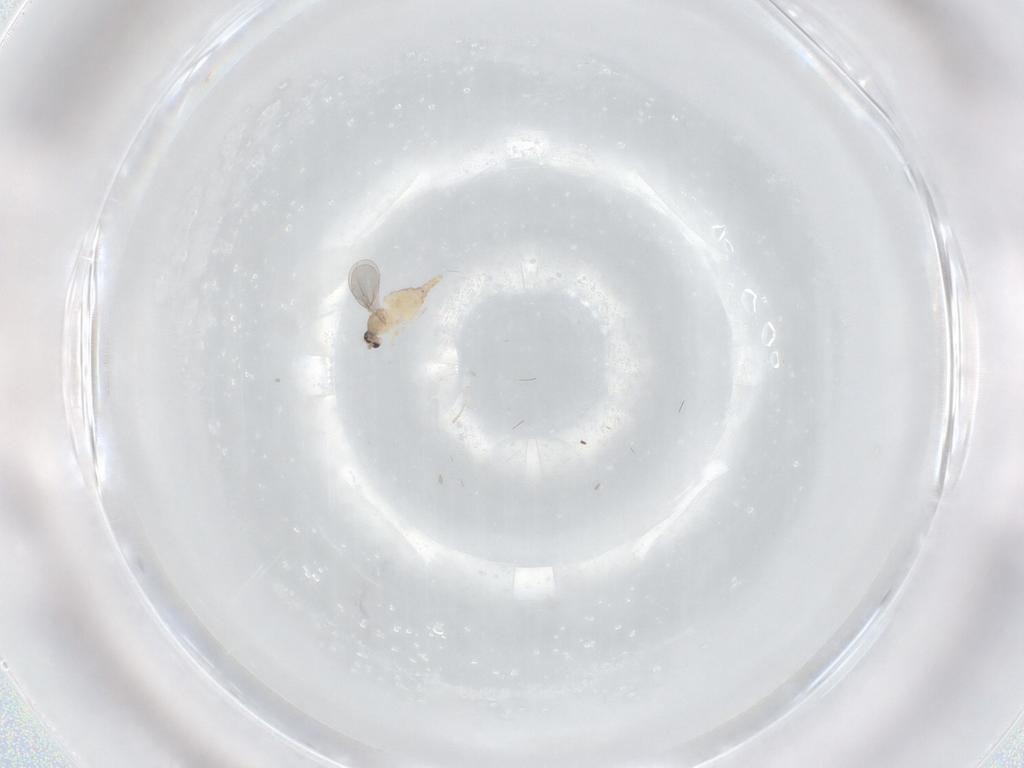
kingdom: Animalia
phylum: Arthropoda
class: Insecta
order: Diptera
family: Cecidomyiidae
